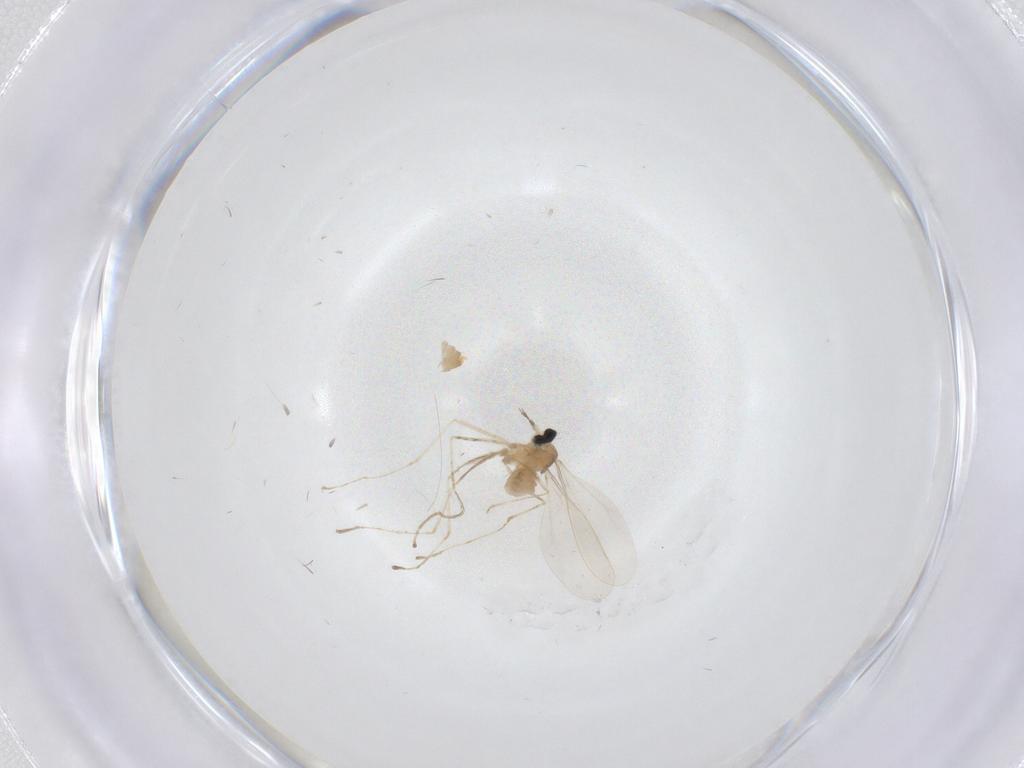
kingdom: Animalia
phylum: Arthropoda
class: Insecta
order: Diptera
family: Cecidomyiidae
